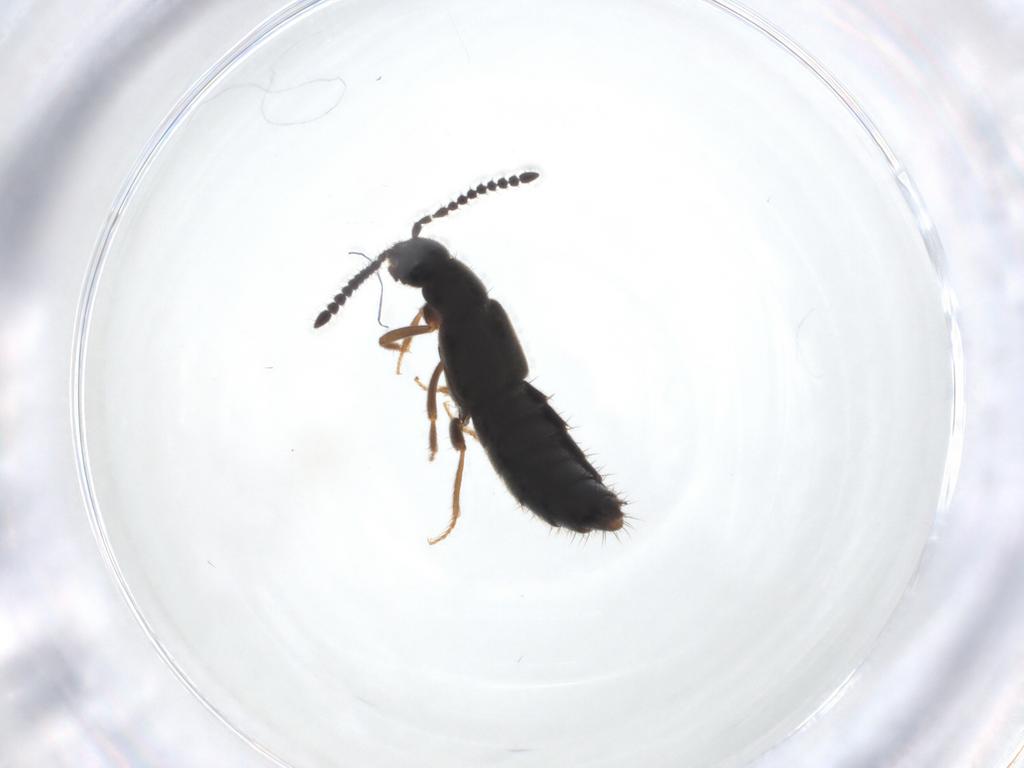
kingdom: Animalia
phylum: Arthropoda
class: Insecta
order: Coleoptera
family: Staphylinidae
